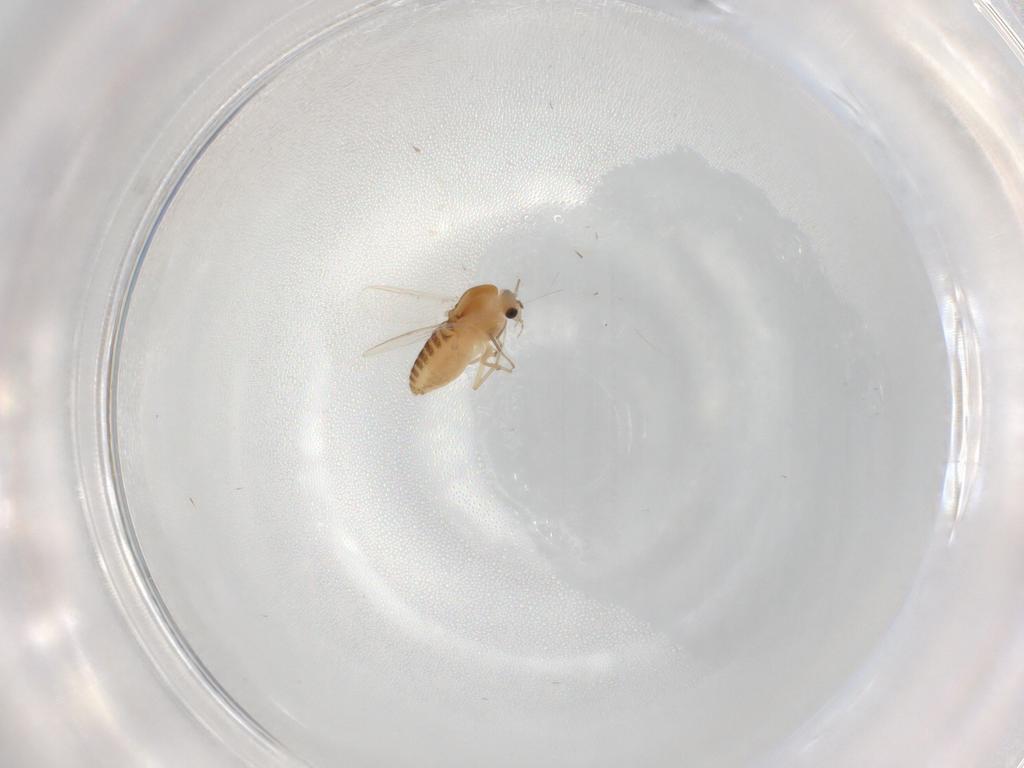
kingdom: Animalia
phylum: Arthropoda
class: Insecta
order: Diptera
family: Chironomidae
